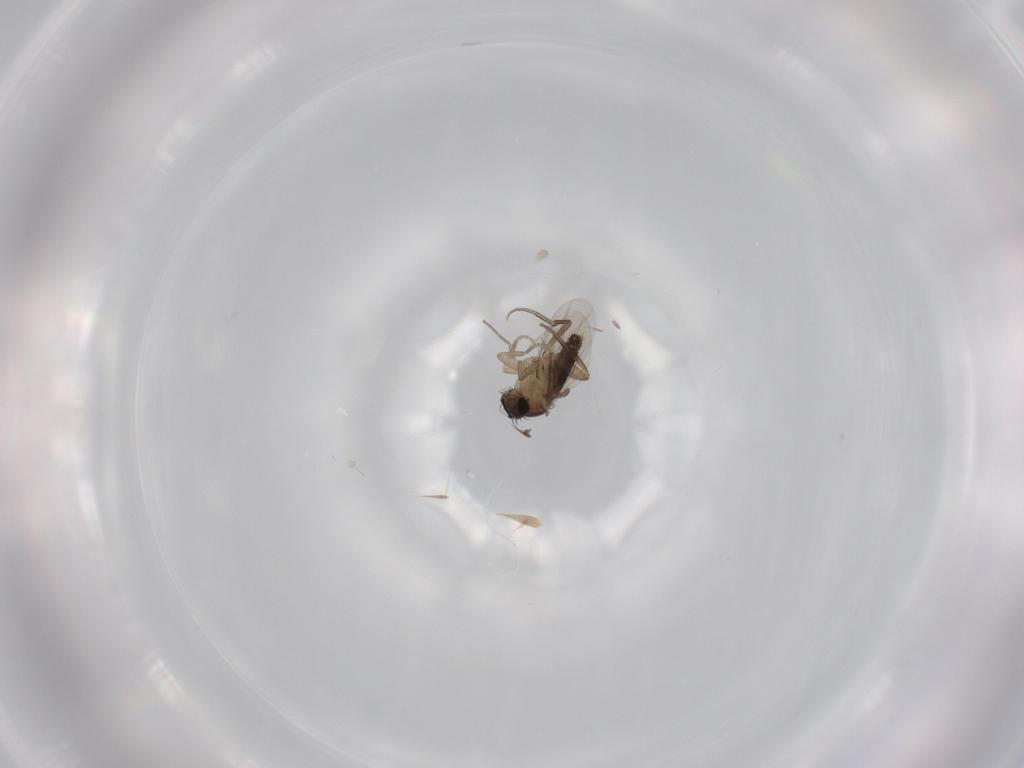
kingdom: Animalia
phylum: Arthropoda
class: Insecta
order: Diptera
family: Phoridae
